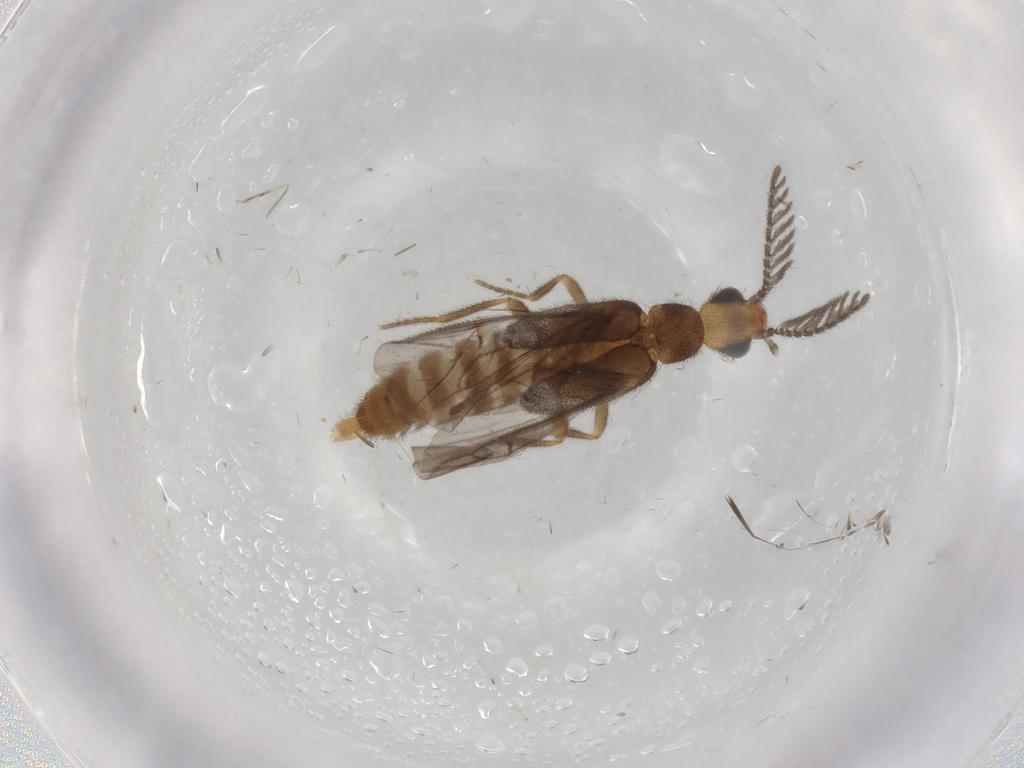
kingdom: Animalia
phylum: Arthropoda
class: Insecta
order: Coleoptera
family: Phengodidae
